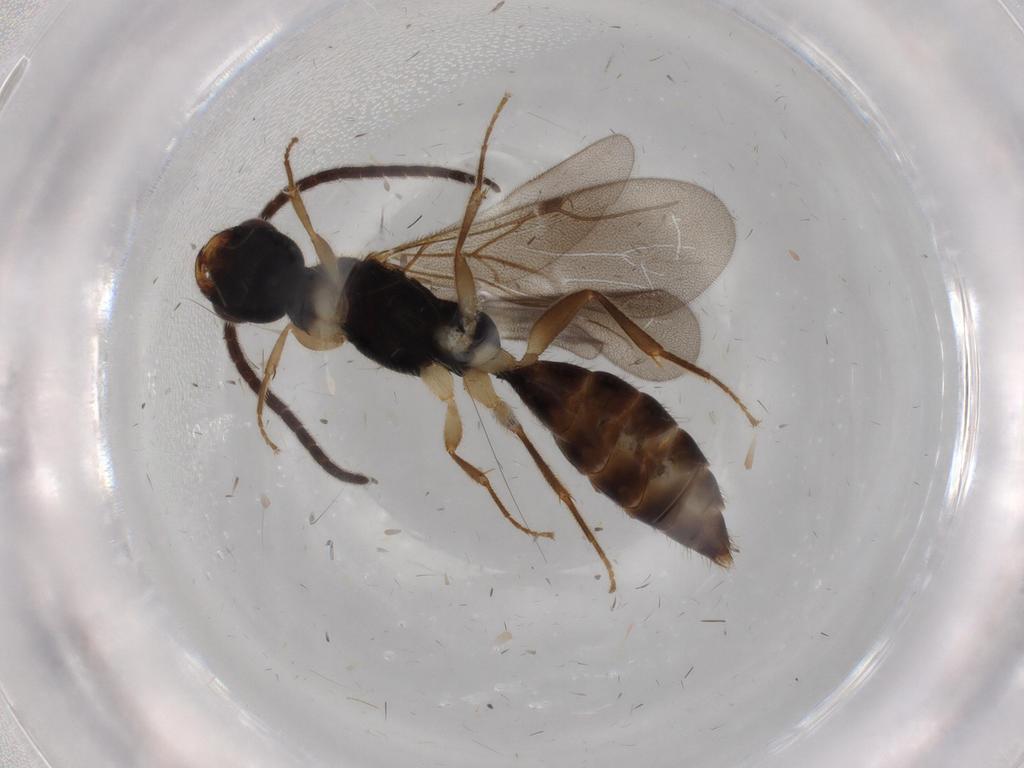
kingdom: Animalia
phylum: Arthropoda
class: Insecta
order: Hymenoptera
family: Bethylidae
